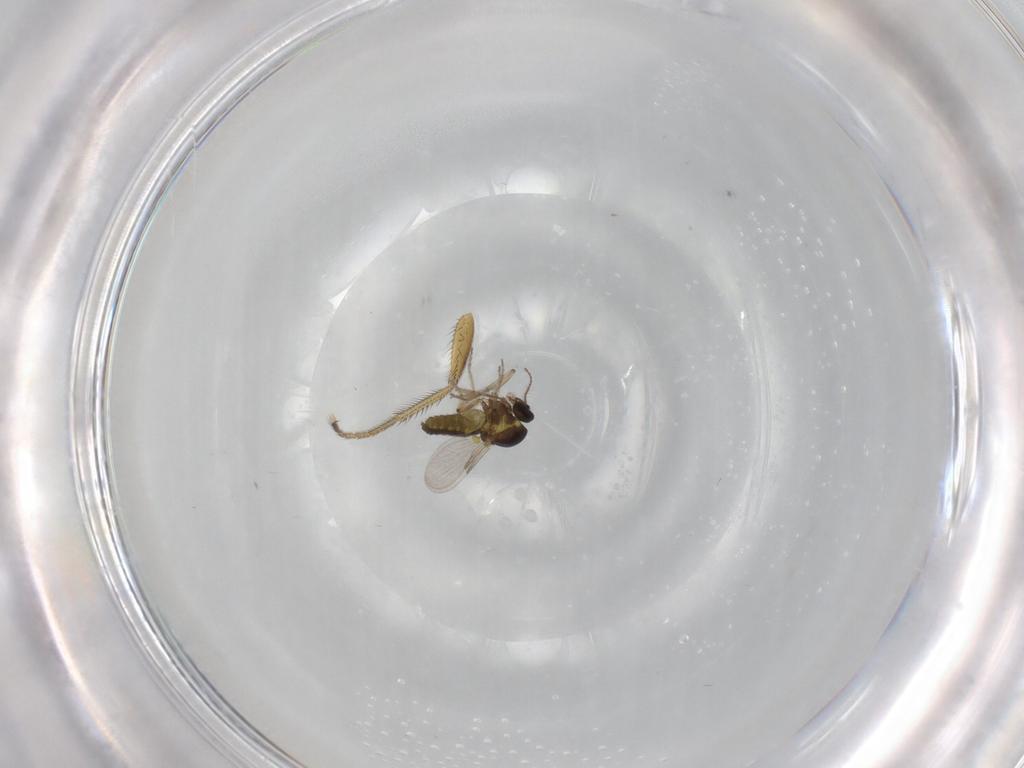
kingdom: Animalia
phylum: Arthropoda
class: Insecta
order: Diptera
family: Dolichopodidae
